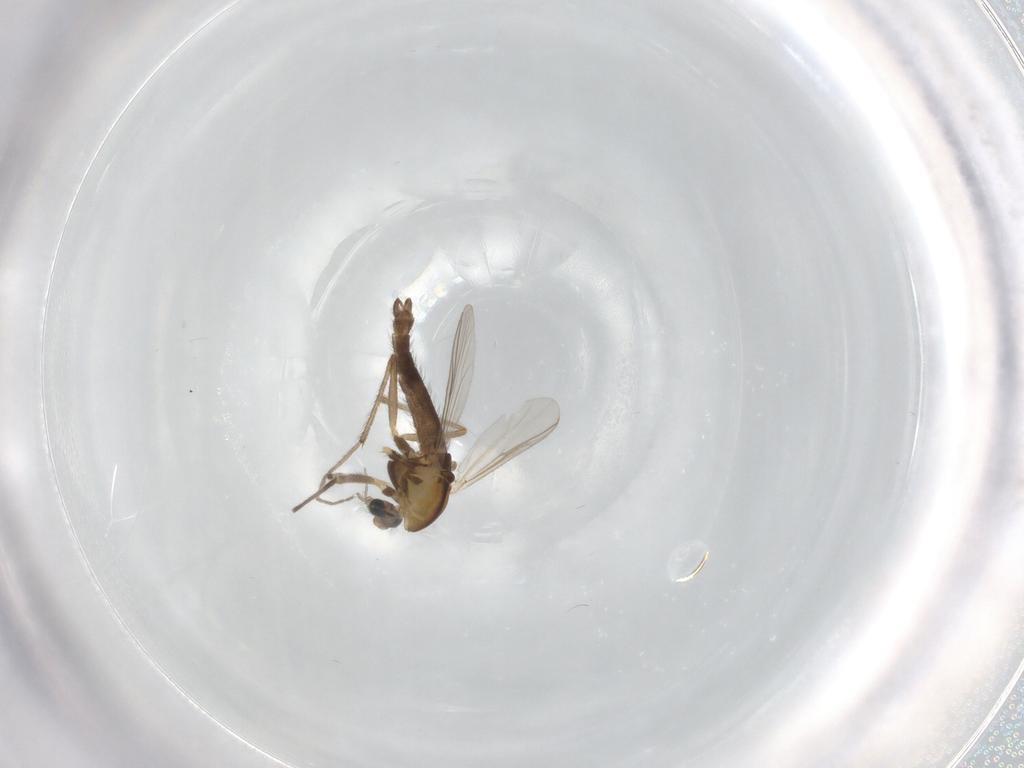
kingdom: Animalia
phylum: Arthropoda
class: Insecta
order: Diptera
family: Chironomidae
